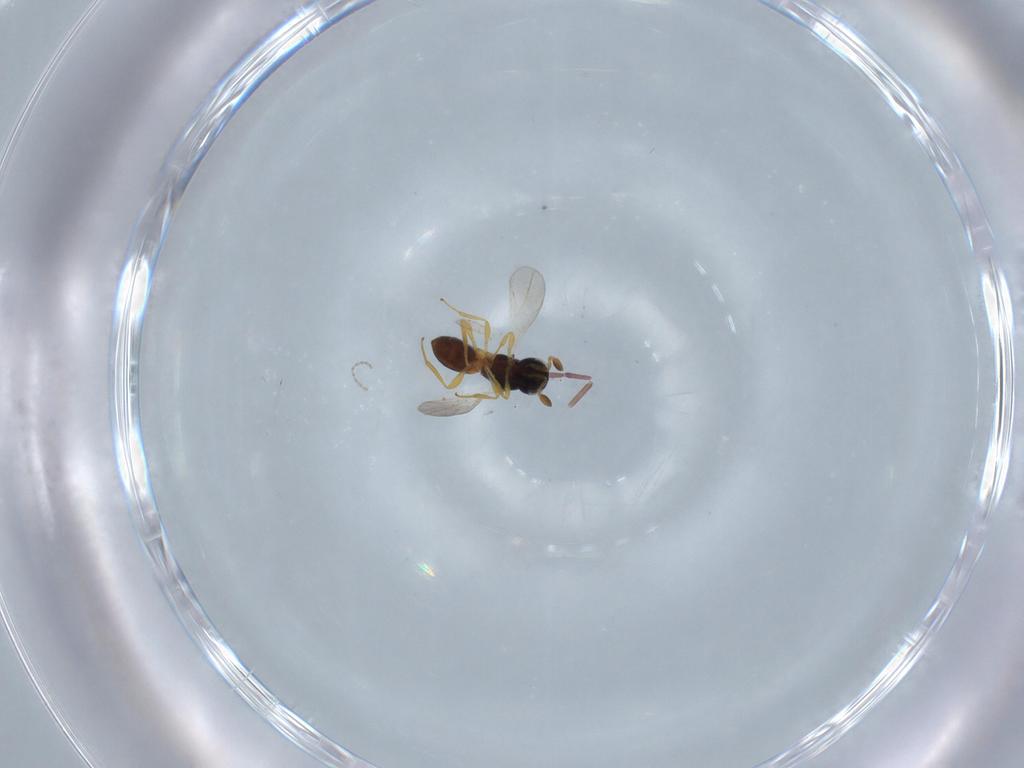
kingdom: Animalia
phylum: Arthropoda
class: Insecta
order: Hymenoptera
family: Platygastridae
